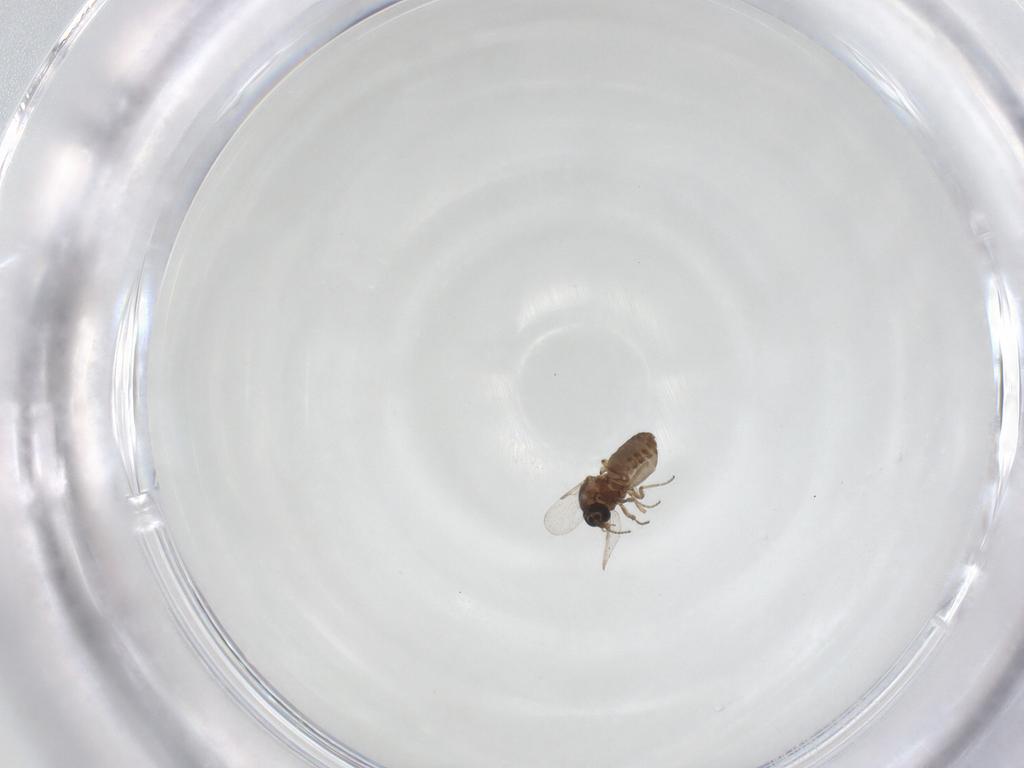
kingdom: Animalia
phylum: Arthropoda
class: Insecta
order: Diptera
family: Ceratopogonidae
